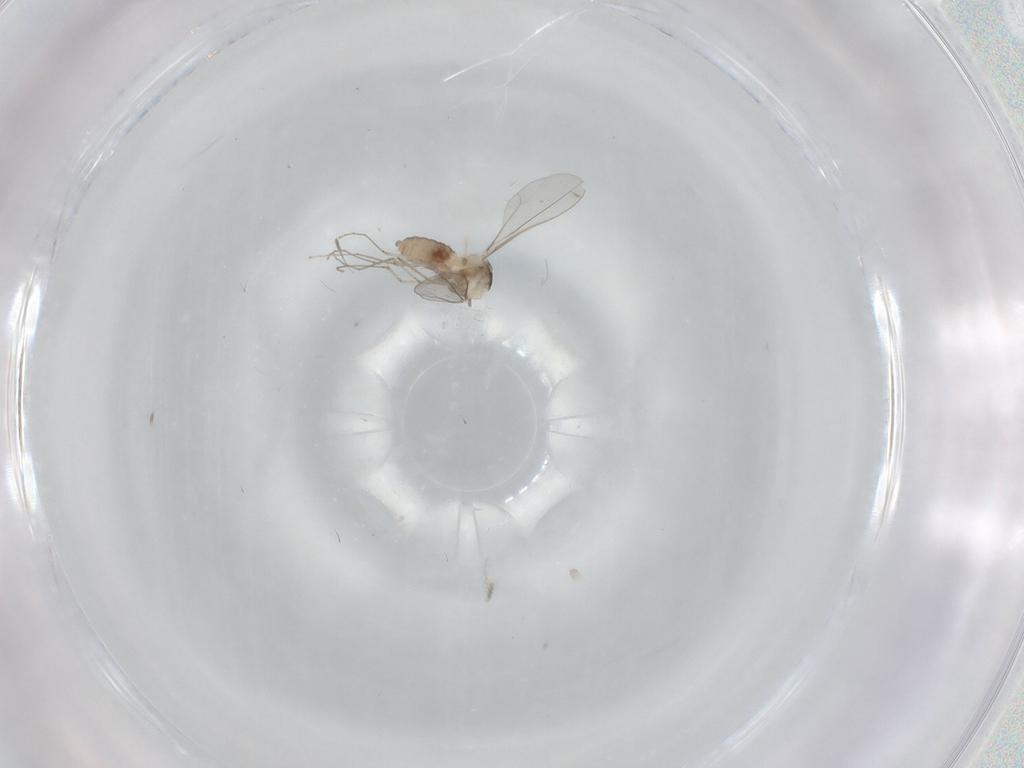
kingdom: Animalia
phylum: Arthropoda
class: Insecta
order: Diptera
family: Cecidomyiidae
